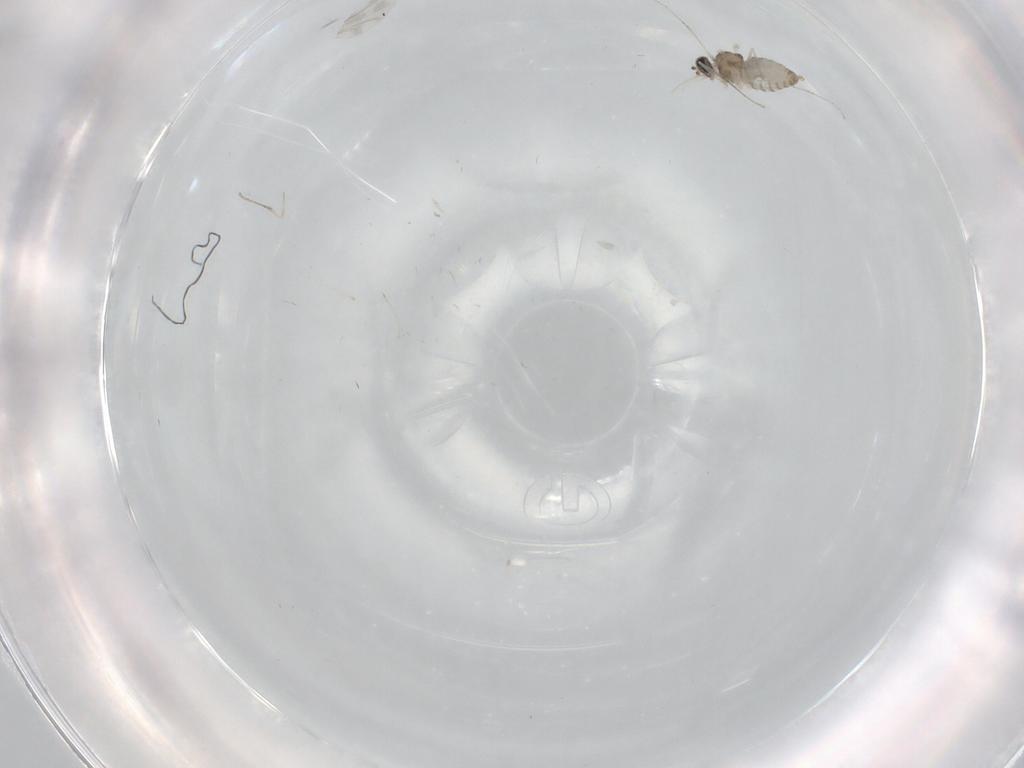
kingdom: Animalia
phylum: Arthropoda
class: Insecta
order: Diptera
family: Cecidomyiidae
